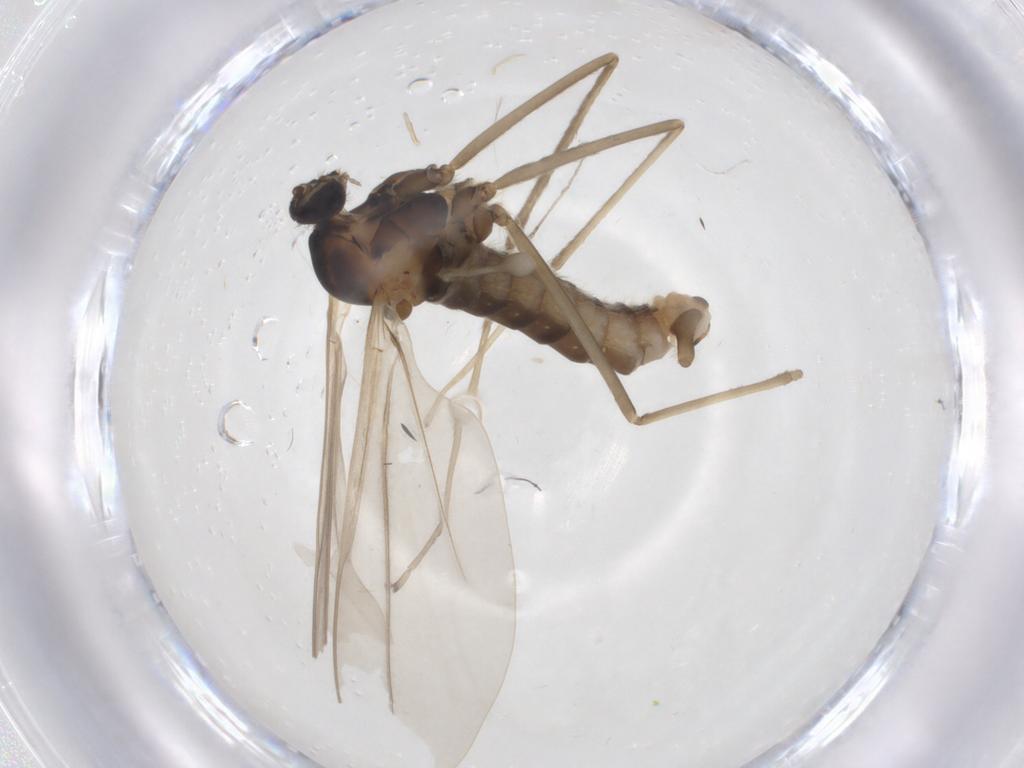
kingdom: Animalia
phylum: Arthropoda
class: Insecta
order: Diptera
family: Cecidomyiidae
